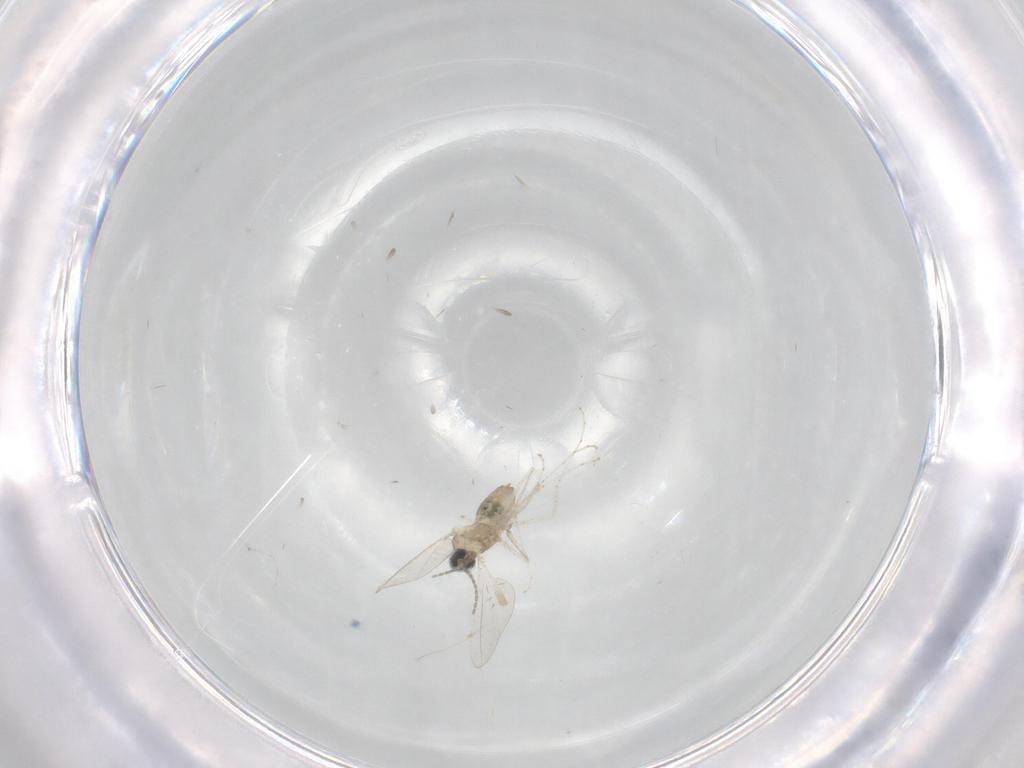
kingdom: Animalia
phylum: Arthropoda
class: Insecta
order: Diptera
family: Cecidomyiidae
